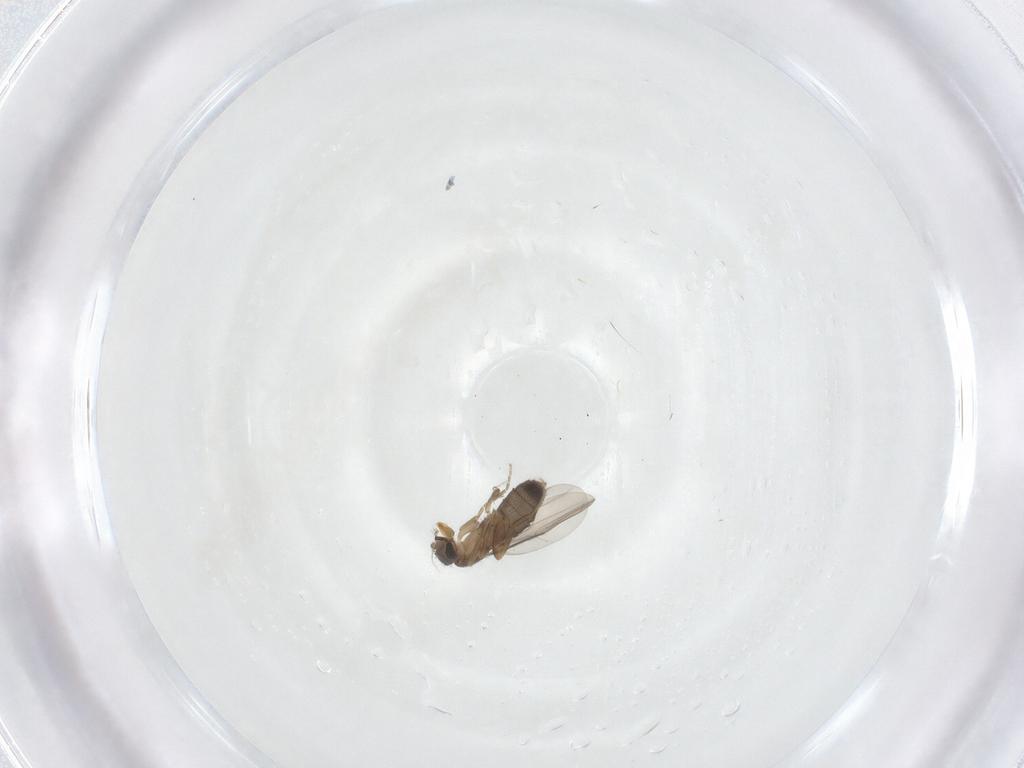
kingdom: Animalia
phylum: Arthropoda
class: Insecta
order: Diptera
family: Phoridae
